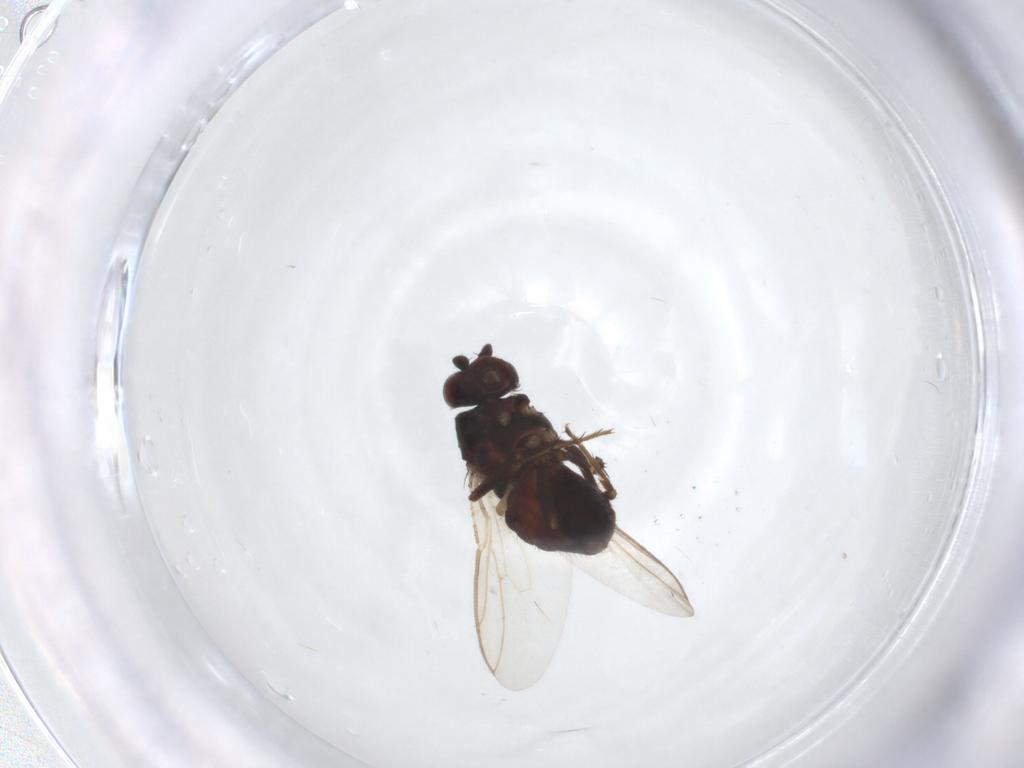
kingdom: Animalia
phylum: Arthropoda
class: Insecta
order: Diptera
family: Sphaeroceridae
